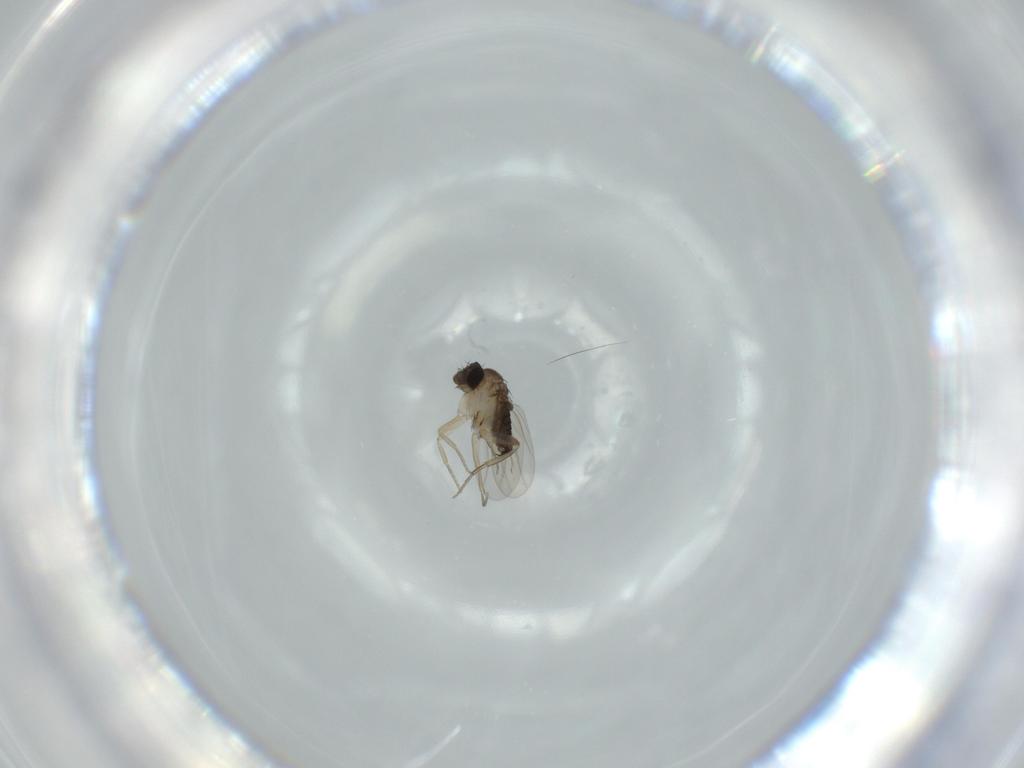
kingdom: Animalia
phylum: Arthropoda
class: Insecta
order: Diptera
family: Phoridae
